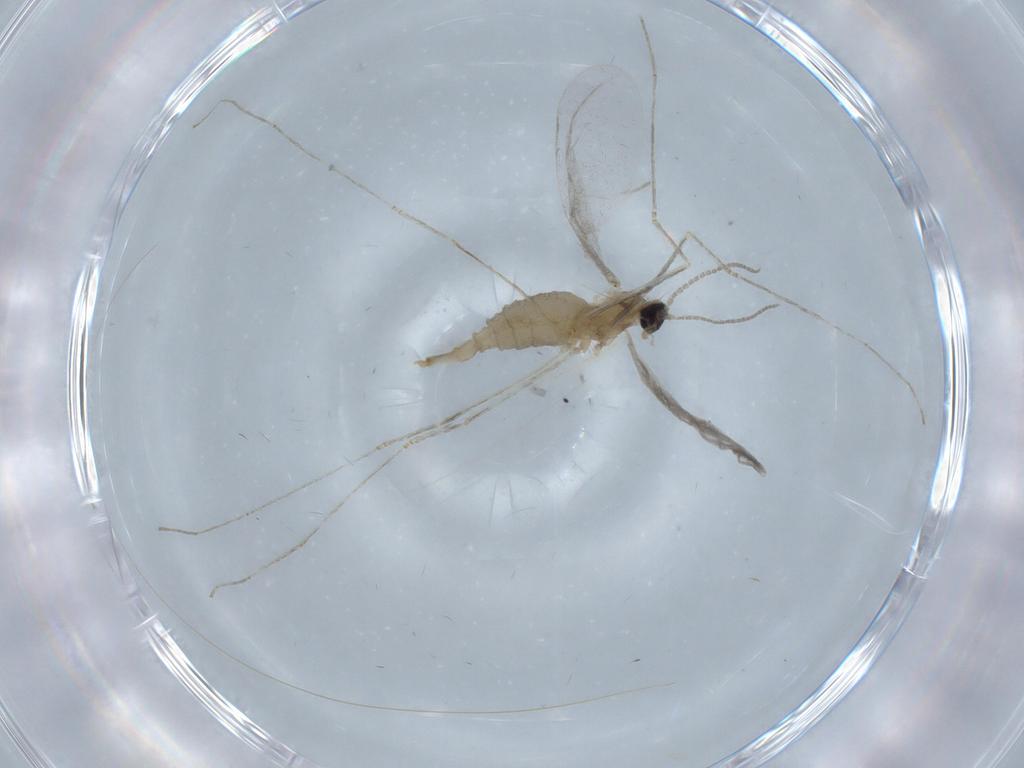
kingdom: Animalia
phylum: Arthropoda
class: Insecta
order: Diptera
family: Cecidomyiidae
